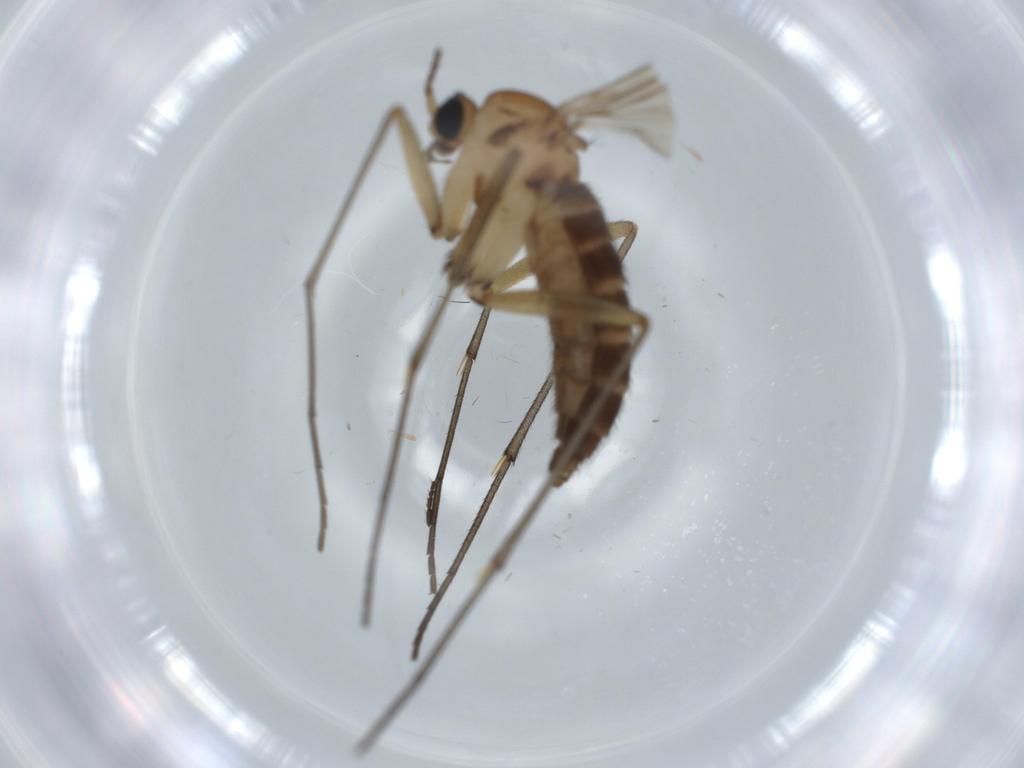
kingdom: Animalia
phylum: Arthropoda
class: Insecta
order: Diptera
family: Sciaridae
